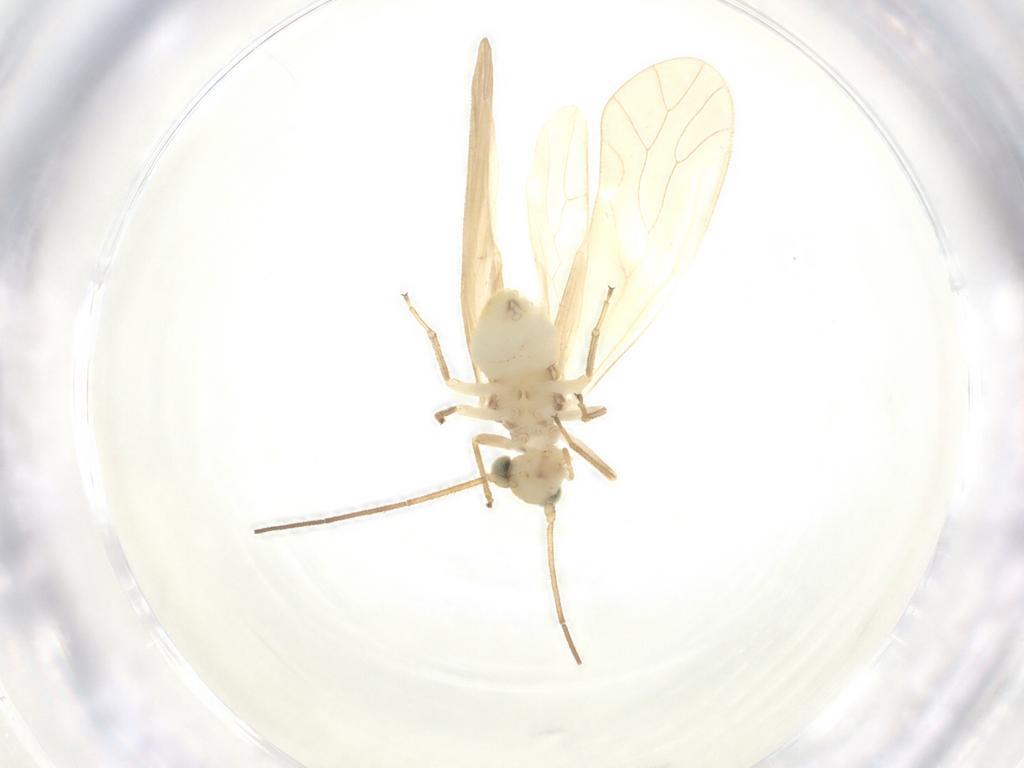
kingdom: Animalia
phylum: Arthropoda
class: Insecta
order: Psocodea
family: Caeciliusidae
